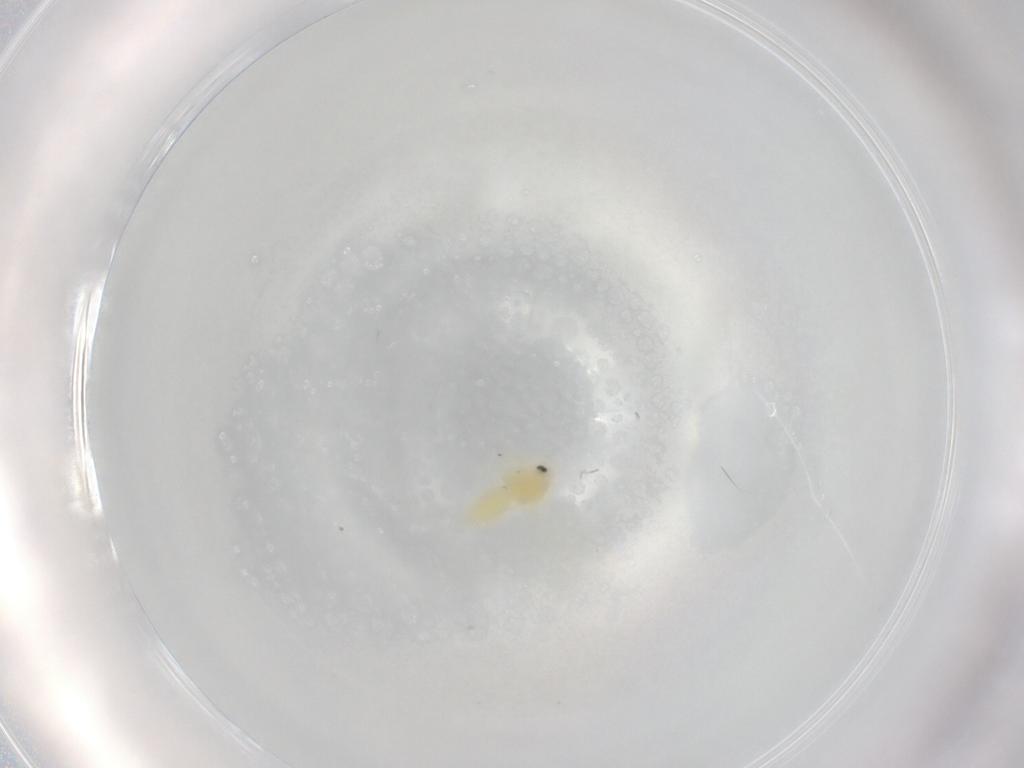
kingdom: Animalia
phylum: Arthropoda
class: Insecta
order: Hemiptera
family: Aleyrodidae
